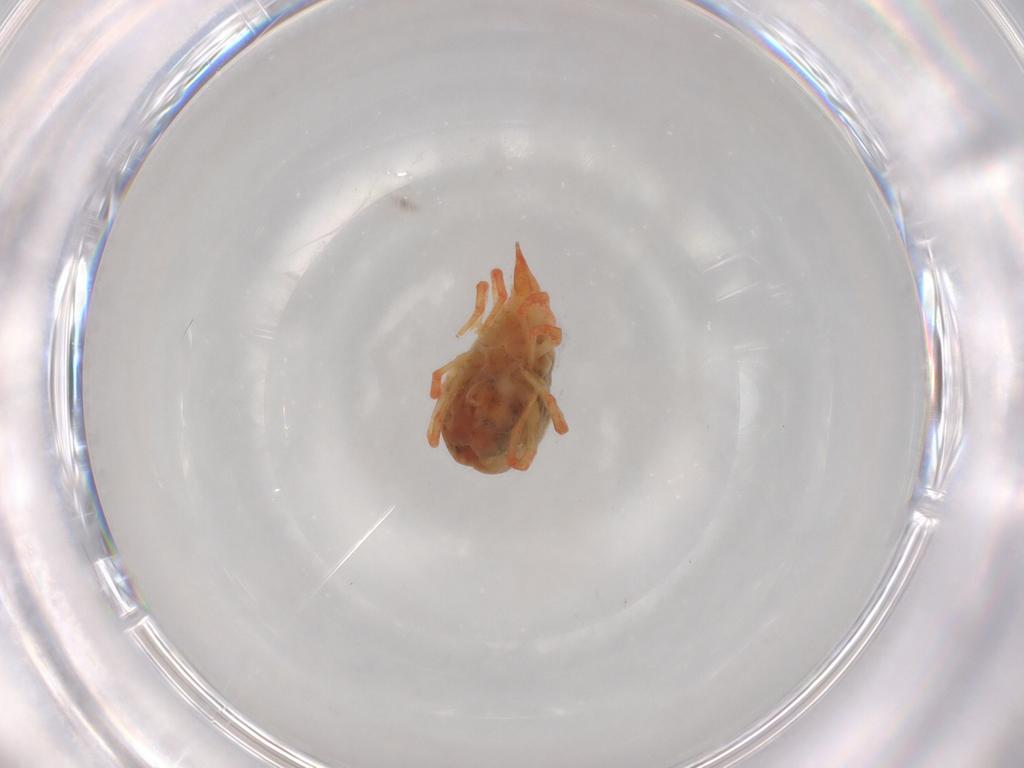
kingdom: Animalia
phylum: Arthropoda
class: Arachnida
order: Trombidiformes
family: Bdellidae
